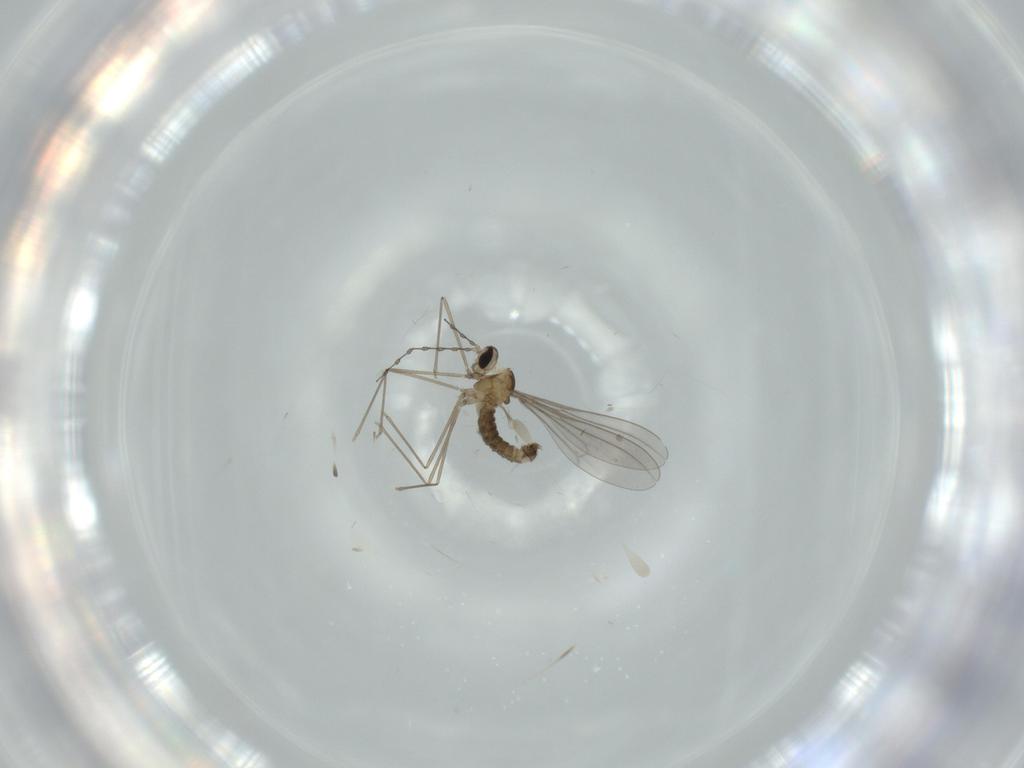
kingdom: Animalia
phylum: Arthropoda
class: Insecta
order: Diptera
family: Cecidomyiidae
